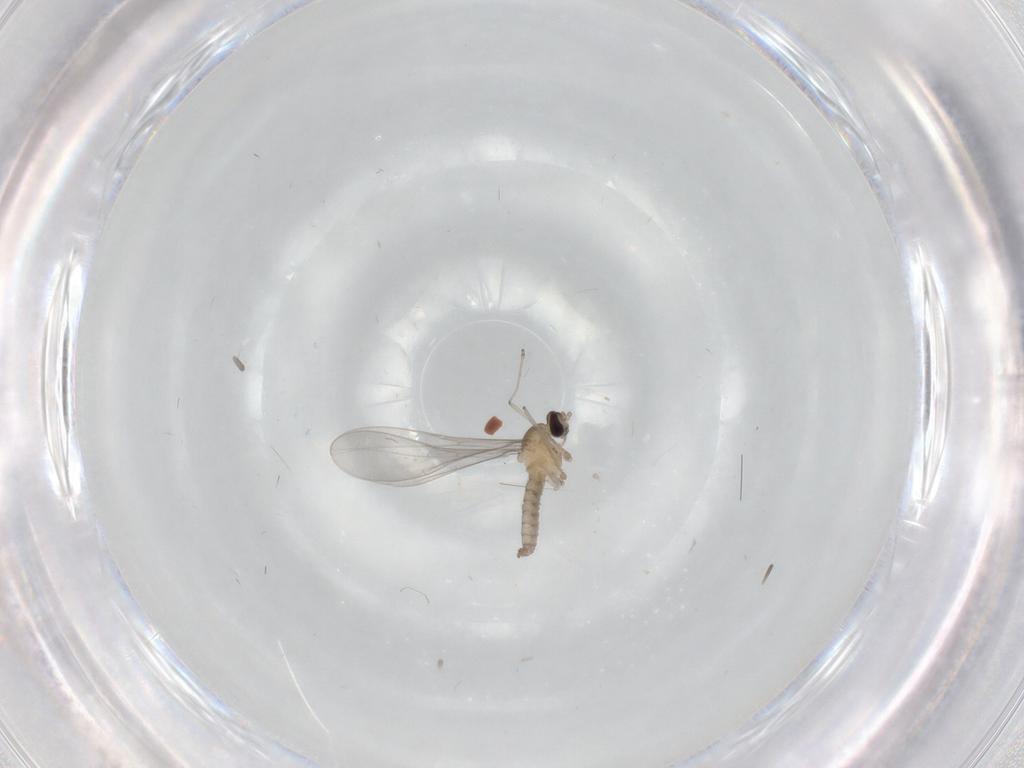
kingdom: Animalia
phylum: Arthropoda
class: Insecta
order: Diptera
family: Cecidomyiidae
